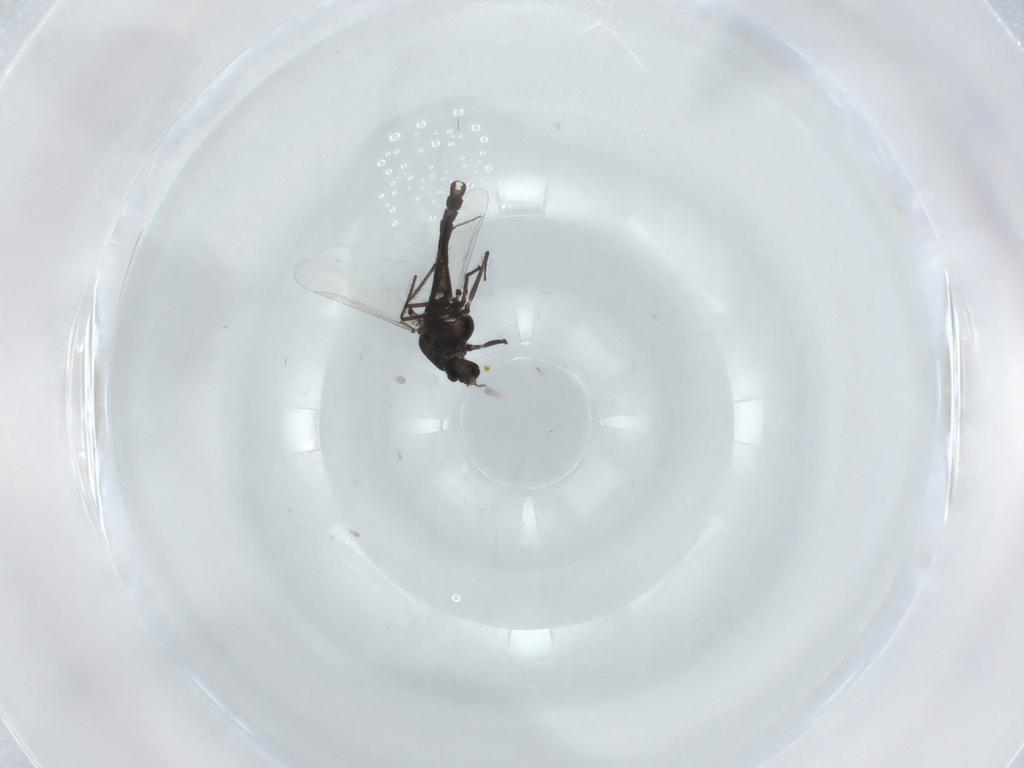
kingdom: Animalia
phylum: Arthropoda
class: Insecta
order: Diptera
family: Chironomidae
